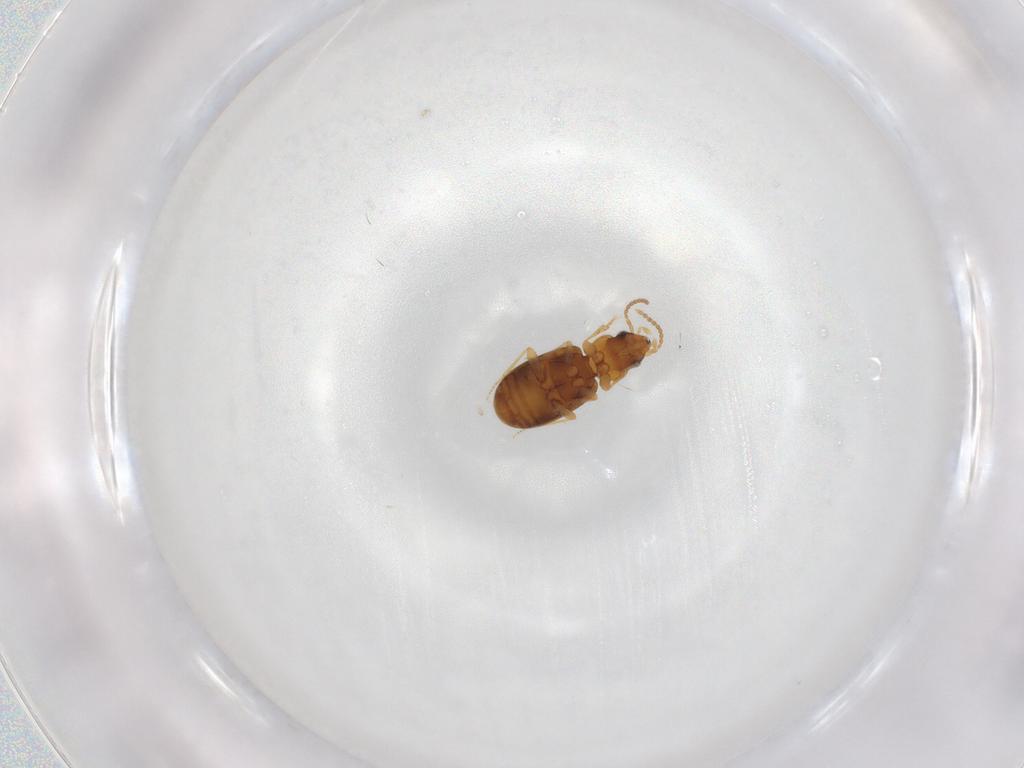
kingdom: Animalia
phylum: Arthropoda
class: Insecta
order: Coleoptera
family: Carabidae
